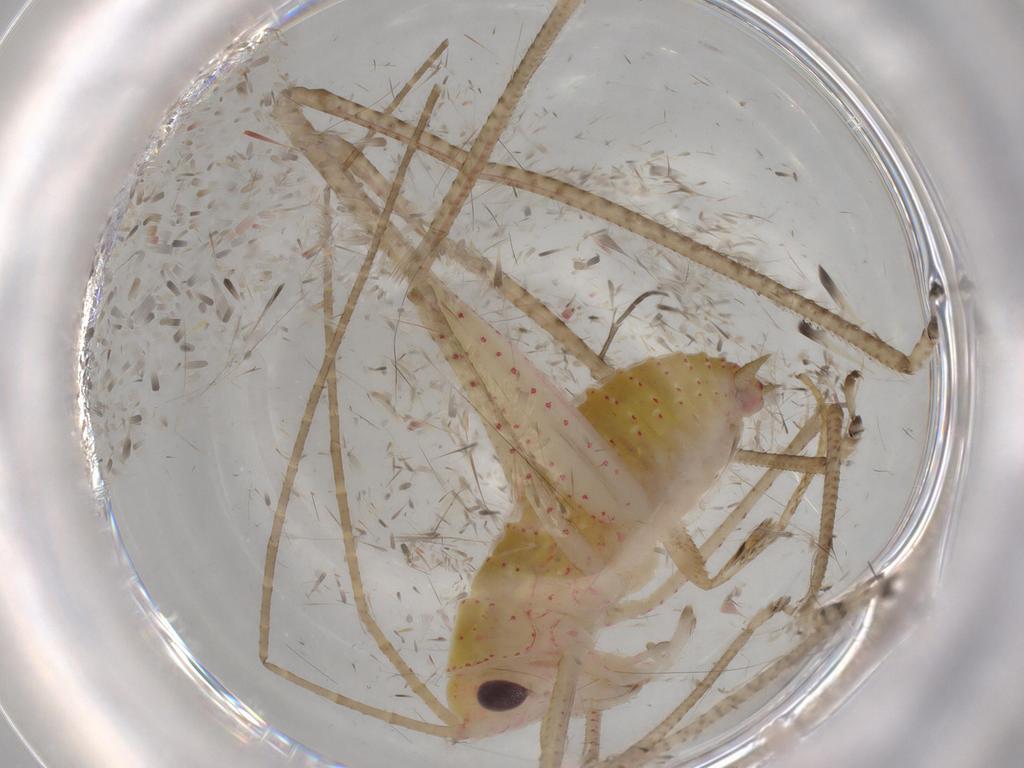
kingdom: Animalia
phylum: Arthropoda
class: Insecta
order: Orthoptera
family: Tettigoniidae
